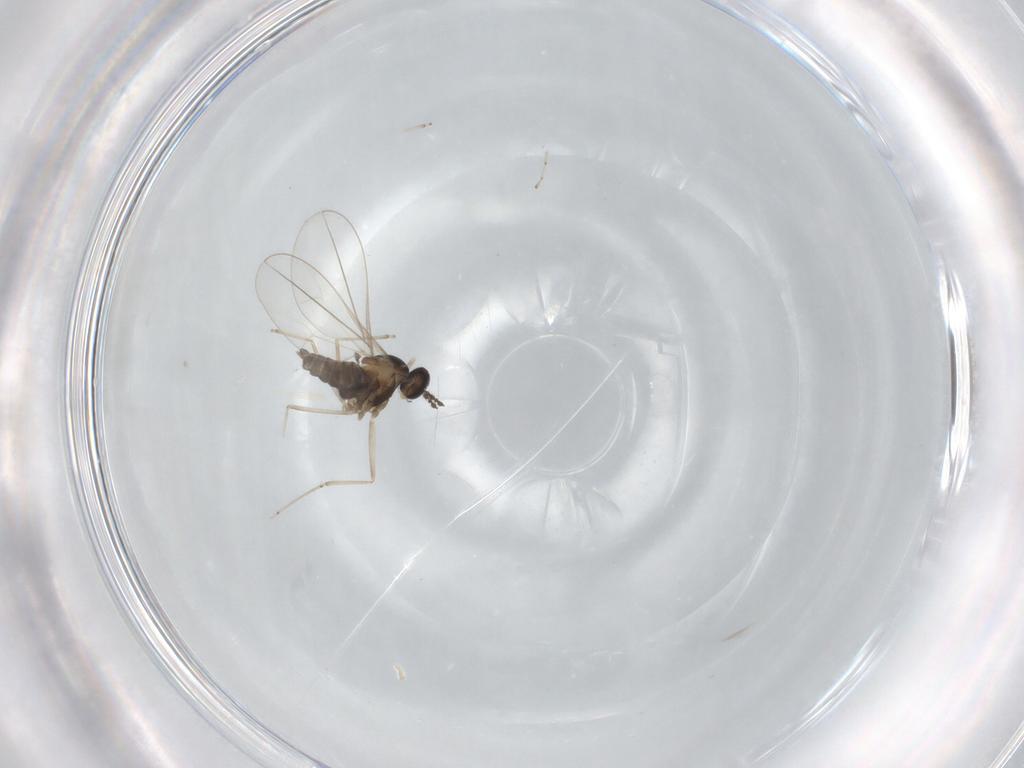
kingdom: Animalia
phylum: Arthropoda
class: Insecta
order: Diptera
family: Cecidomyiidae
